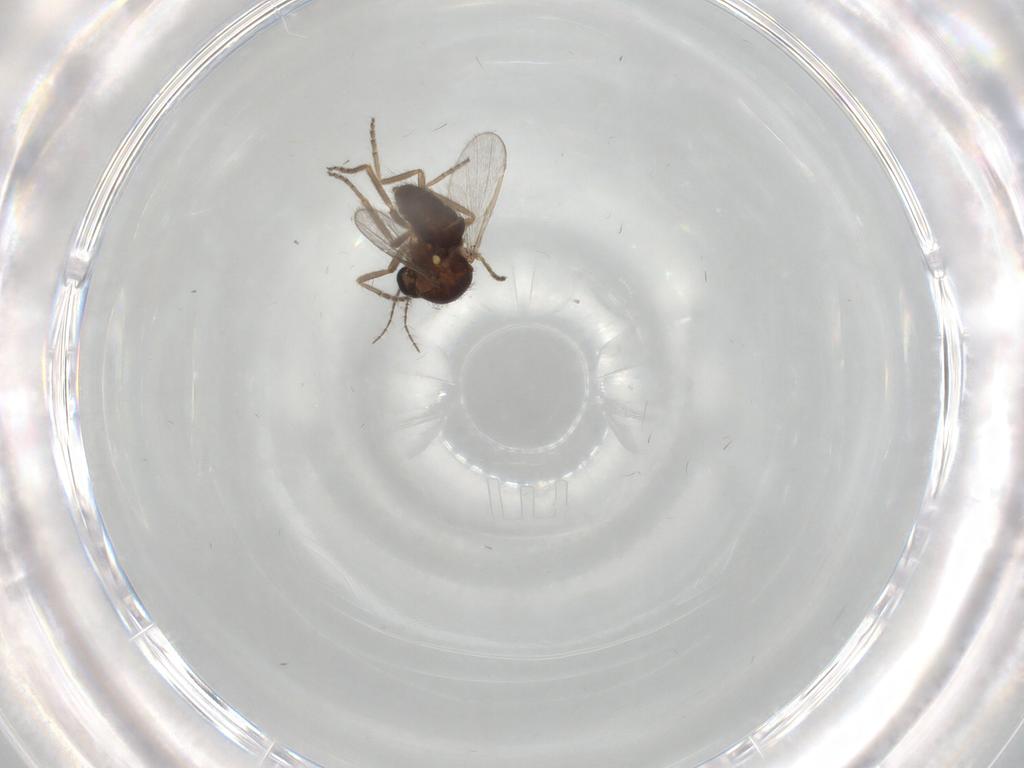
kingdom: Animalia
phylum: Arthropoda
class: Insecta
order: Diptera
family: Ceratopogonidae
